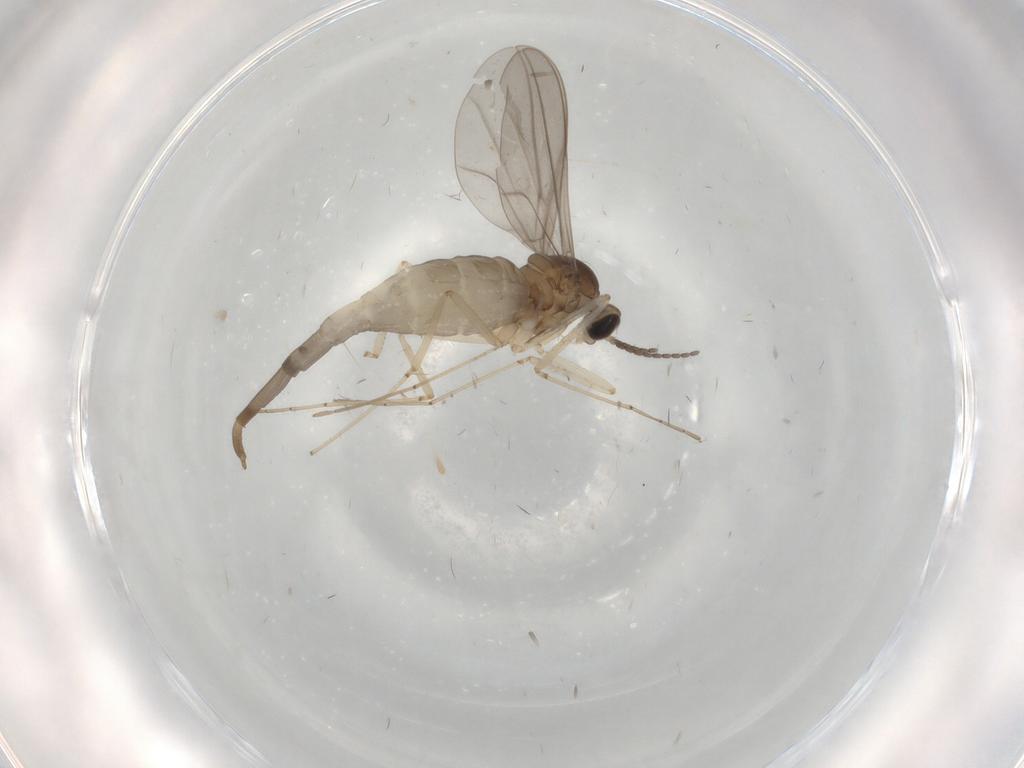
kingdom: Animalia
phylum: Arthropoda
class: Insecta
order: Diptera
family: Cecidomyiidae
